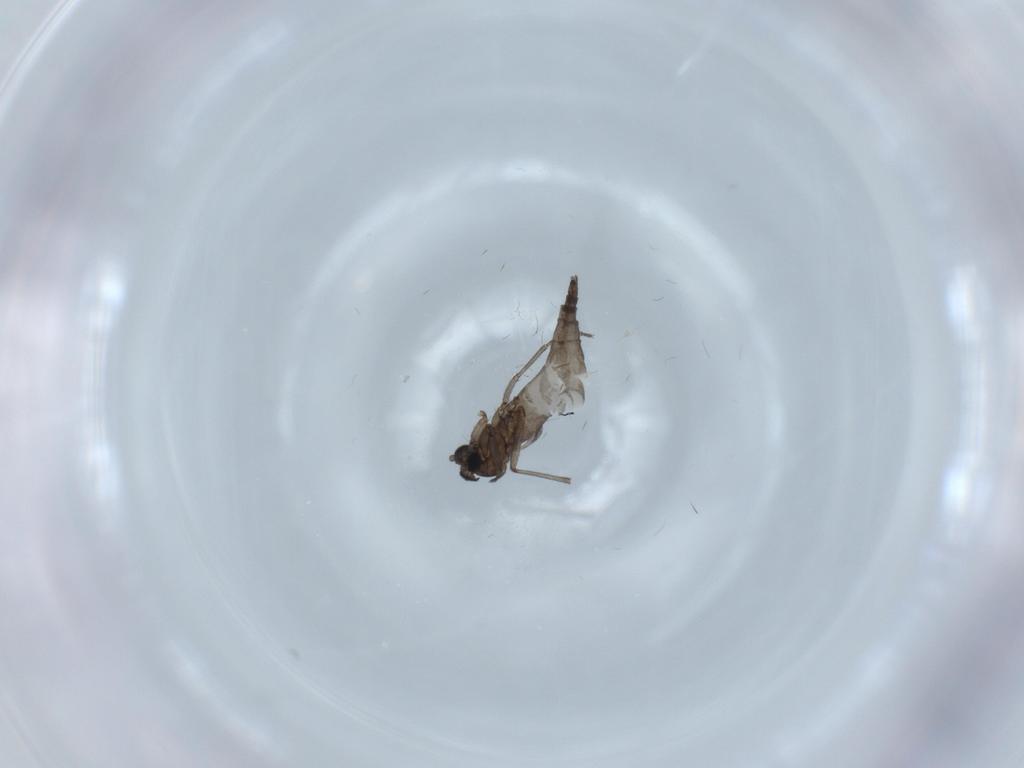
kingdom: Animalia
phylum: Arthropoda
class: Insecta
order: Diptera
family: Sciaridae
